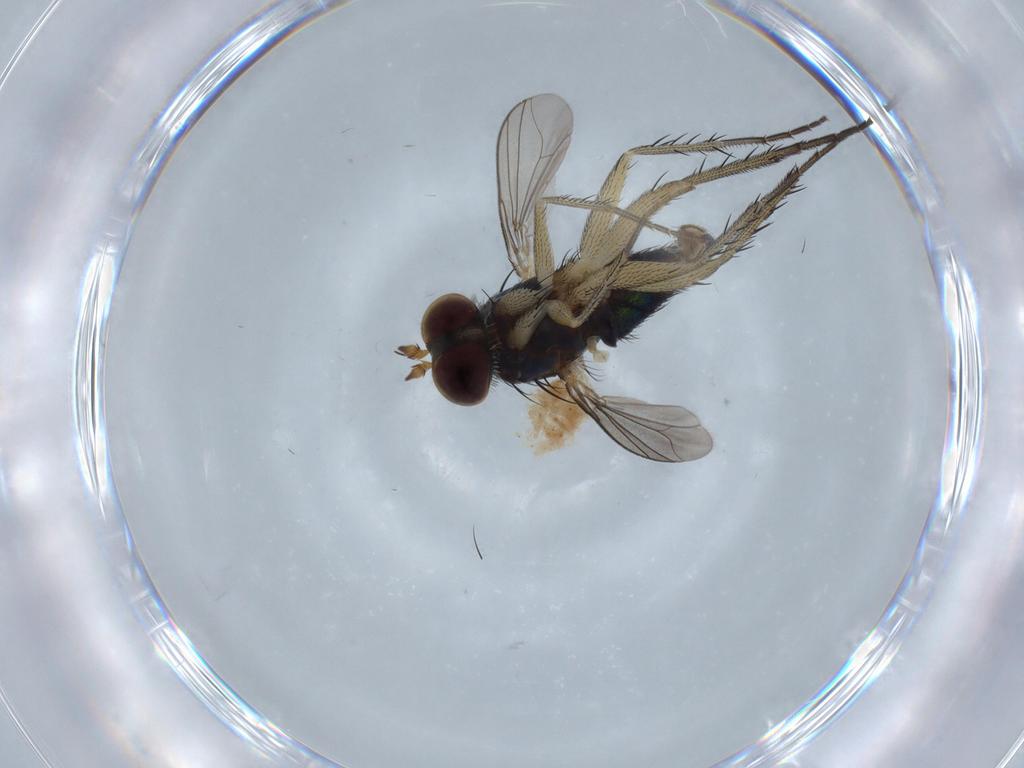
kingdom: Animalia
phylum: Arthropoda
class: Insecta
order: Diptera
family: Dolichopodidae
